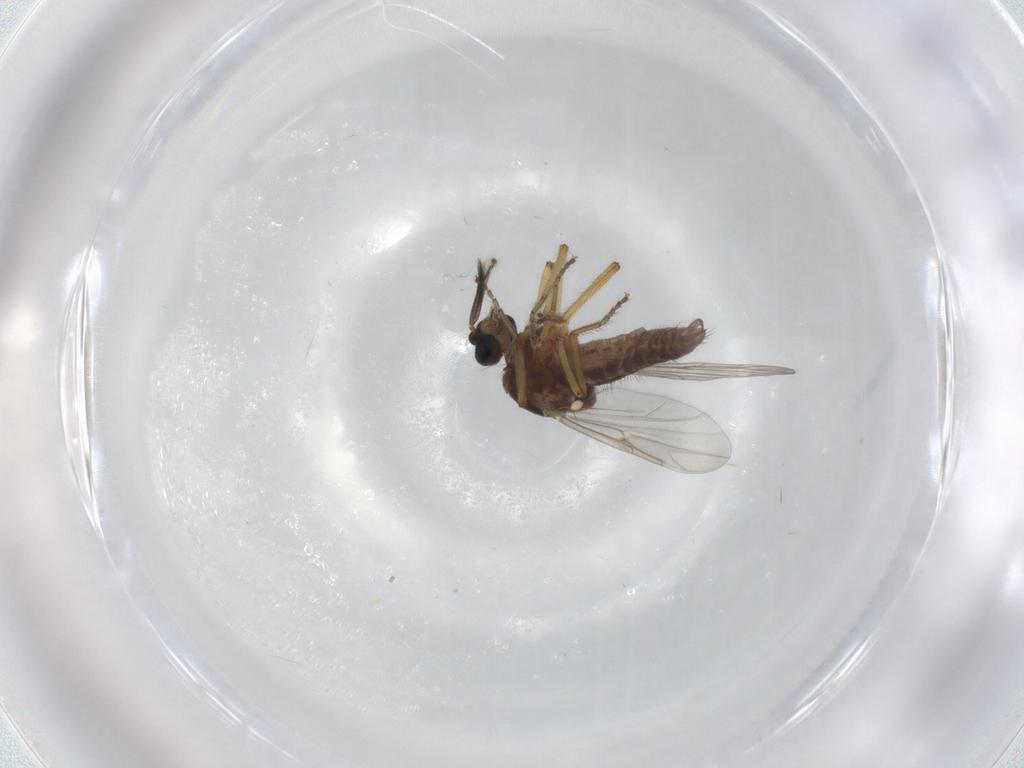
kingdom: Animalia
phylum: Arthropoda
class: Insecta
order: Diptera
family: Ceratopogonidae
